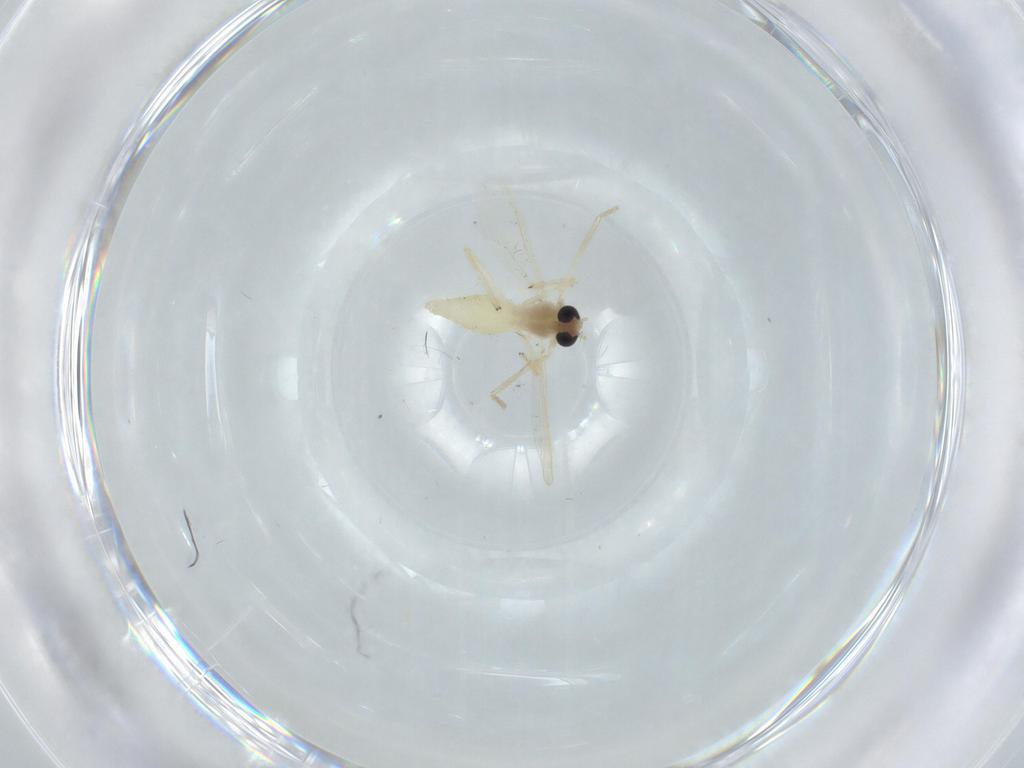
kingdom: Animalia
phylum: Arthropoda
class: Insecta
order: Diptera
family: Chironomidae
